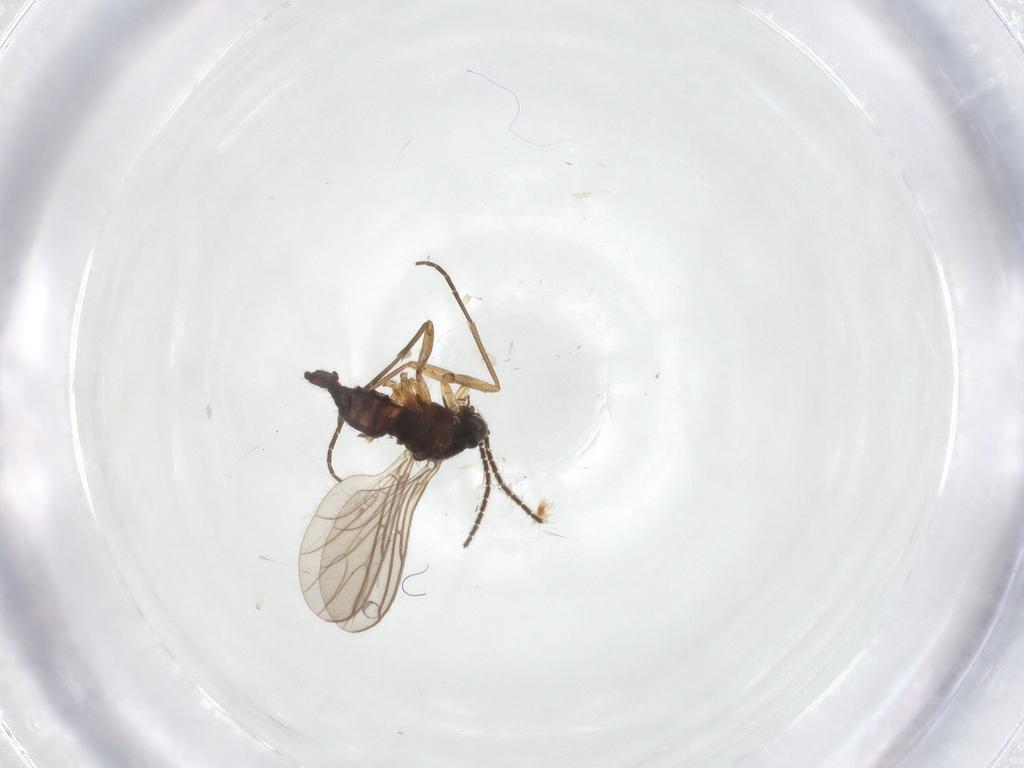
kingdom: Animalia
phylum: Arthropoda
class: Insecta
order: Diptera
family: Sciaridae
